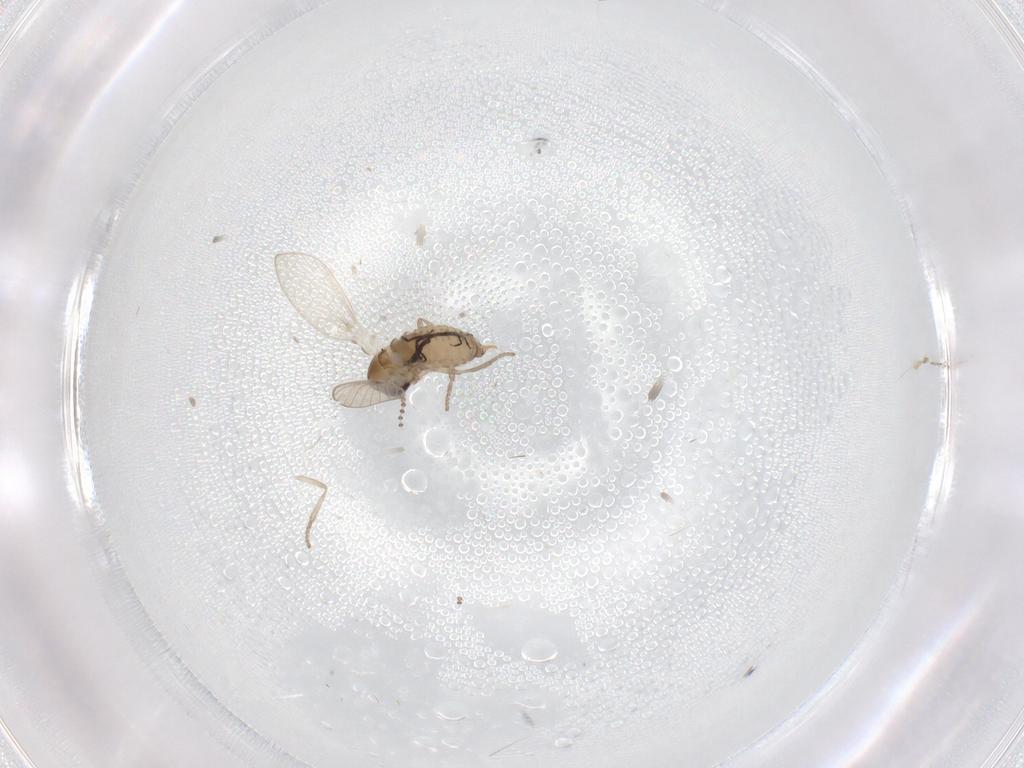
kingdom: Animalia
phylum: Arthropoda
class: Insecta
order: Diptera
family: Psychodidae
